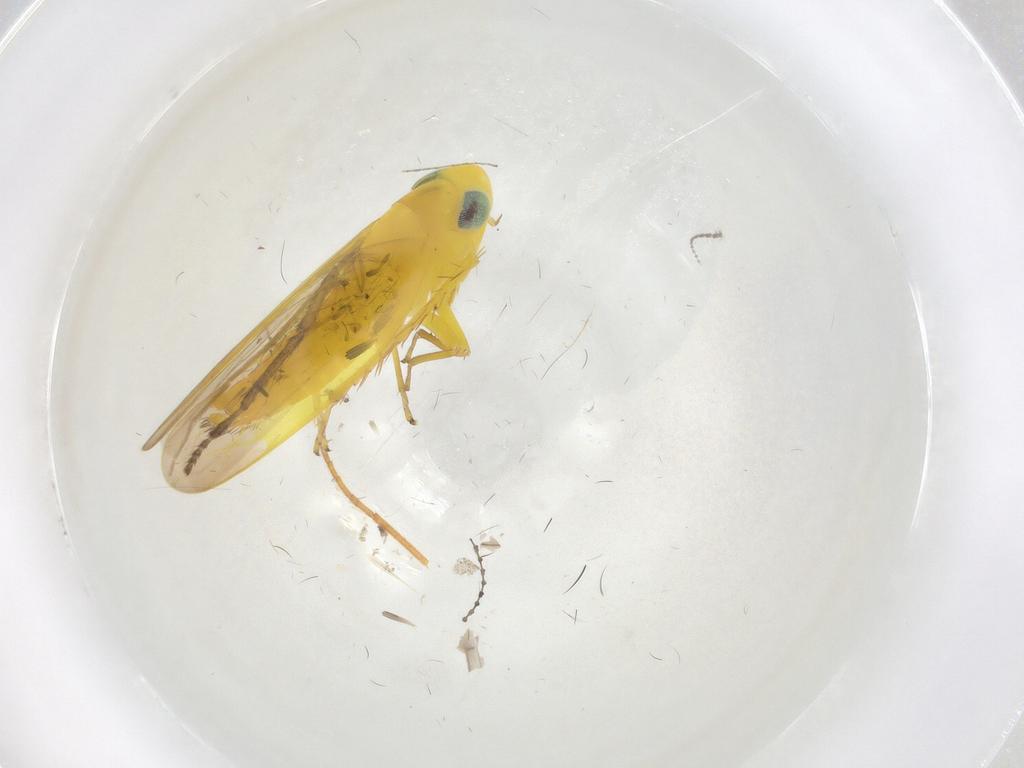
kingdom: Animalia
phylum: Arthropoda
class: Insecta
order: Hemiptera
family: Cicadellidae
